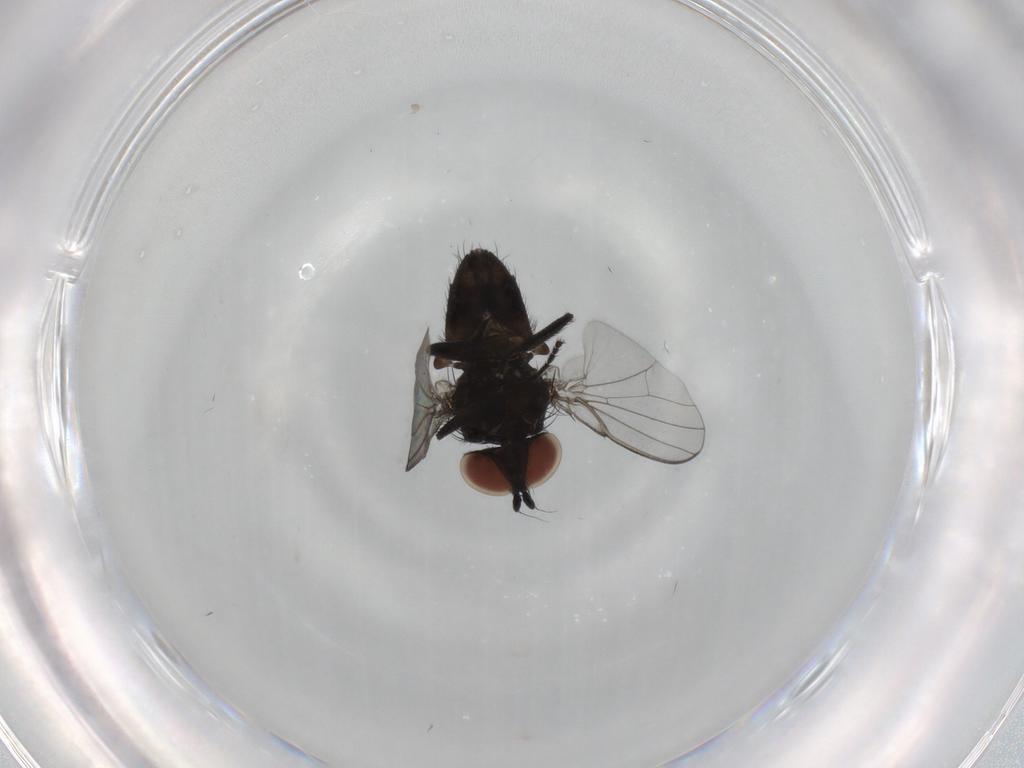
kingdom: Animalia
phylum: Arthropoda
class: Insecta
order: Diptera
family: Milichiidae
